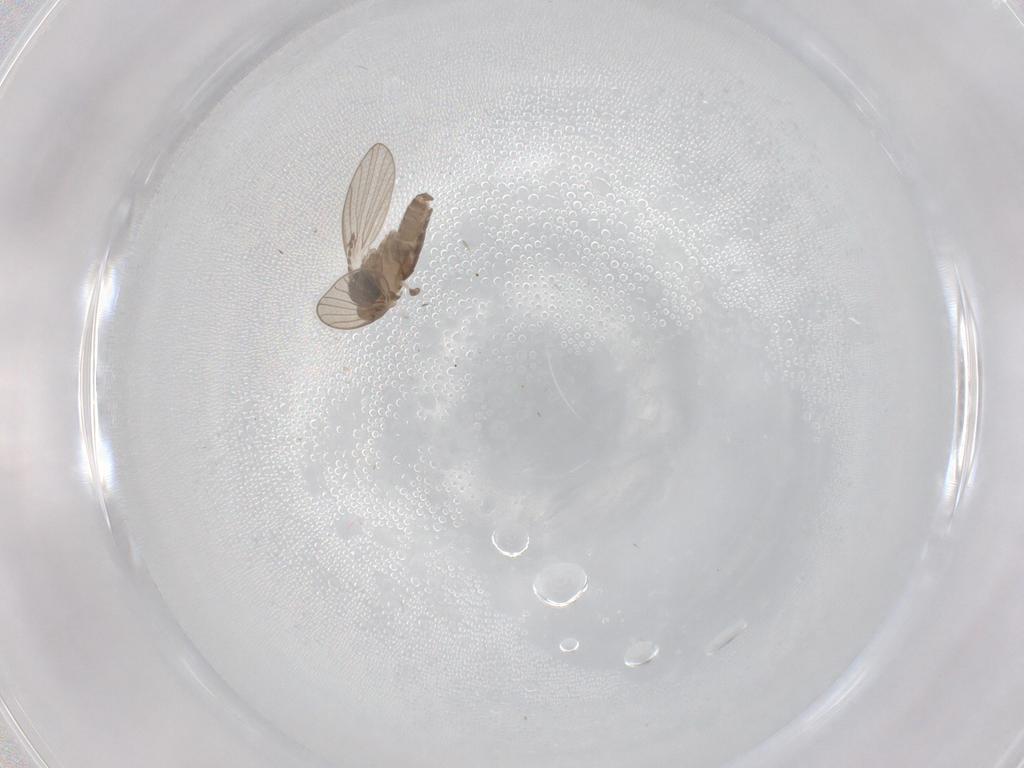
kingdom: Animalia
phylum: Arthropoda
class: Insecta
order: Diptera
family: Psychodidae
